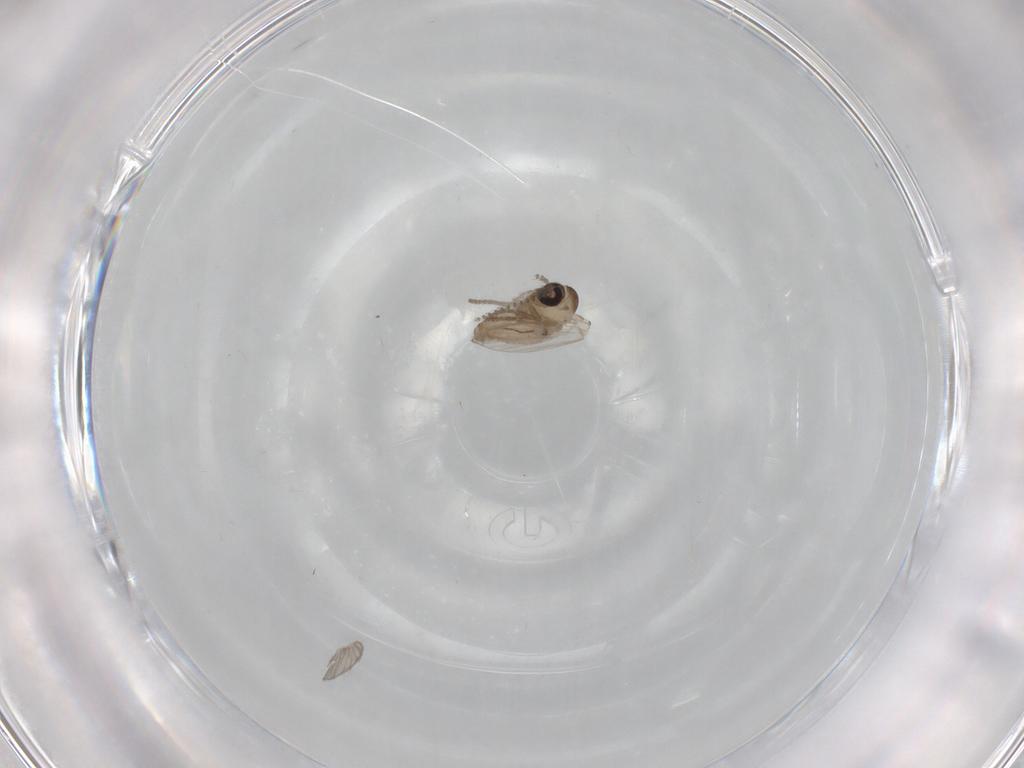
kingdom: Animalia
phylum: Arthropoda
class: Insecta
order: Diptera
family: Psychodidae
